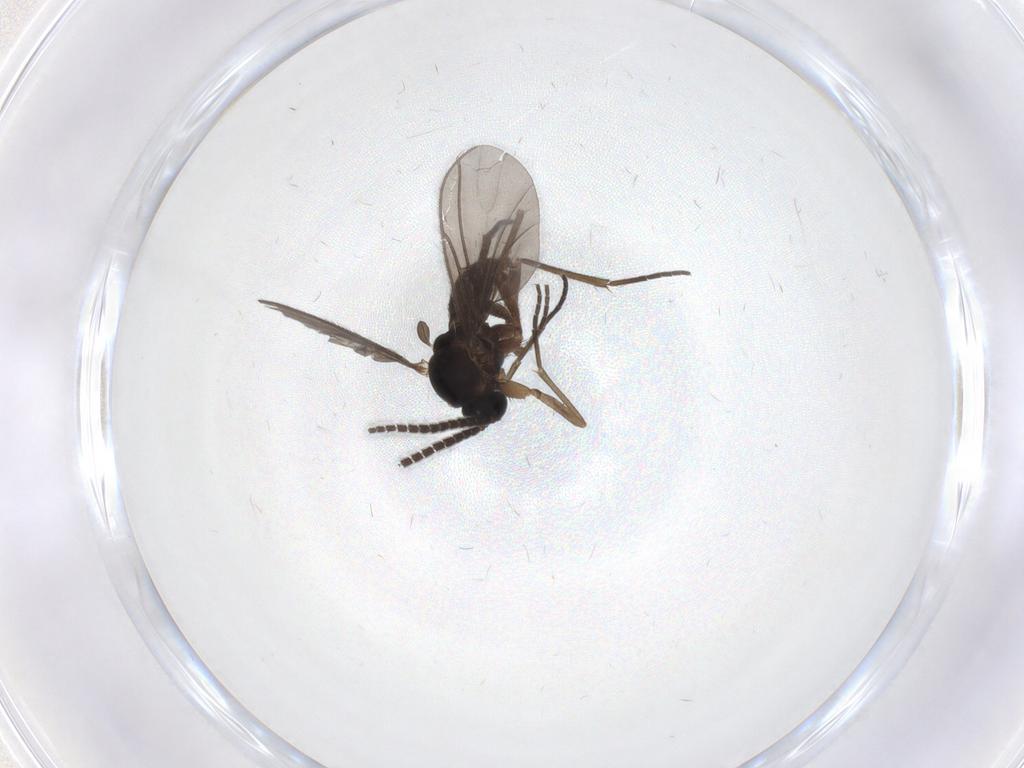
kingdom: Animalia
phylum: Arthropoda
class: Insecta
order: Diptera
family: Sciaridae
